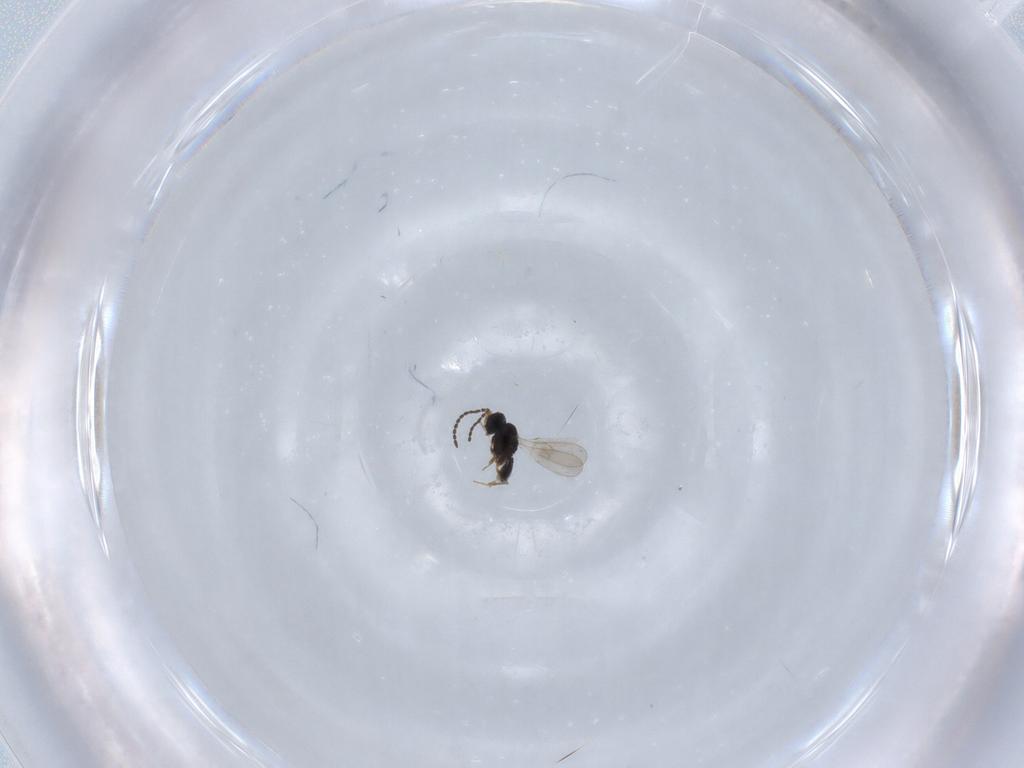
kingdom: Animalia
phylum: Arthropoda
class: Insecta
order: Hymenoptera
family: Scelionidae
